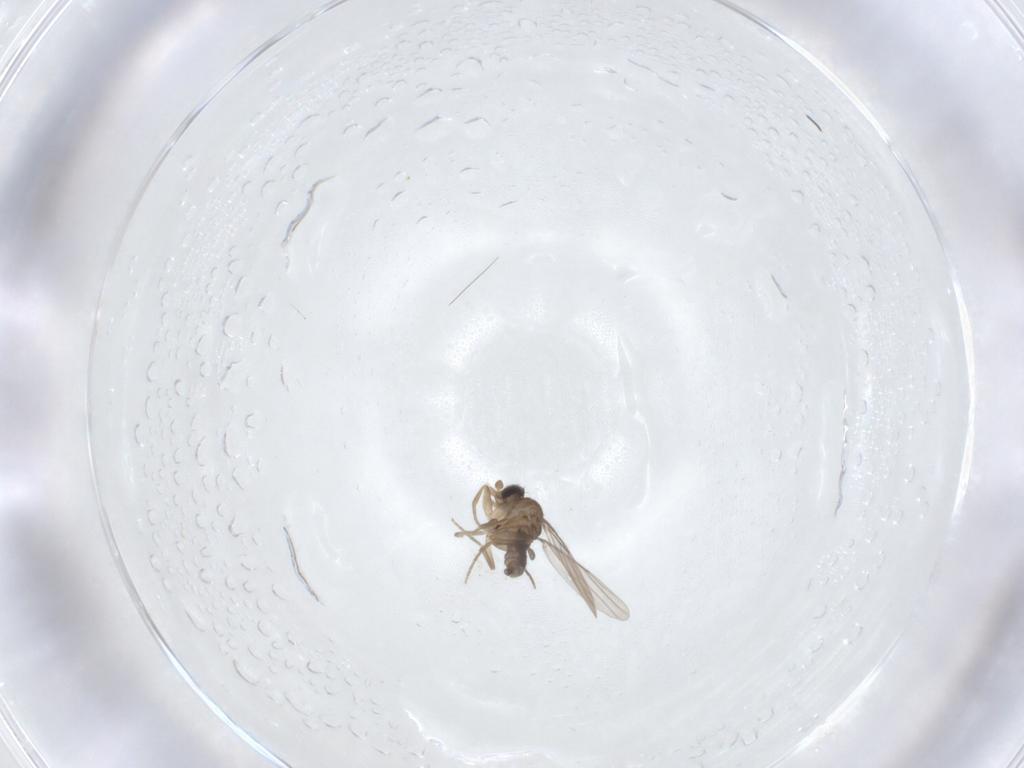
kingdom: Animalia
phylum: Arthropoda
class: Insecta
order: Diptera
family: Phoridae
